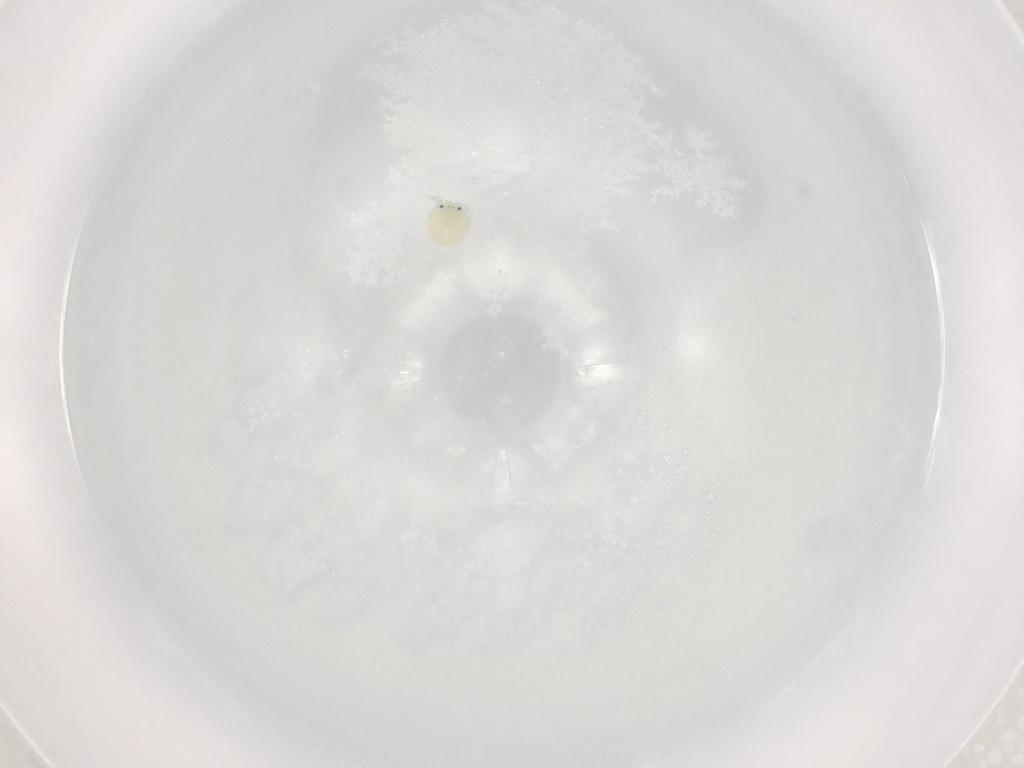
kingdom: Animalia
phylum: Arthropoda
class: Arachnida
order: Trombidiformes
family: Arrenuridae
